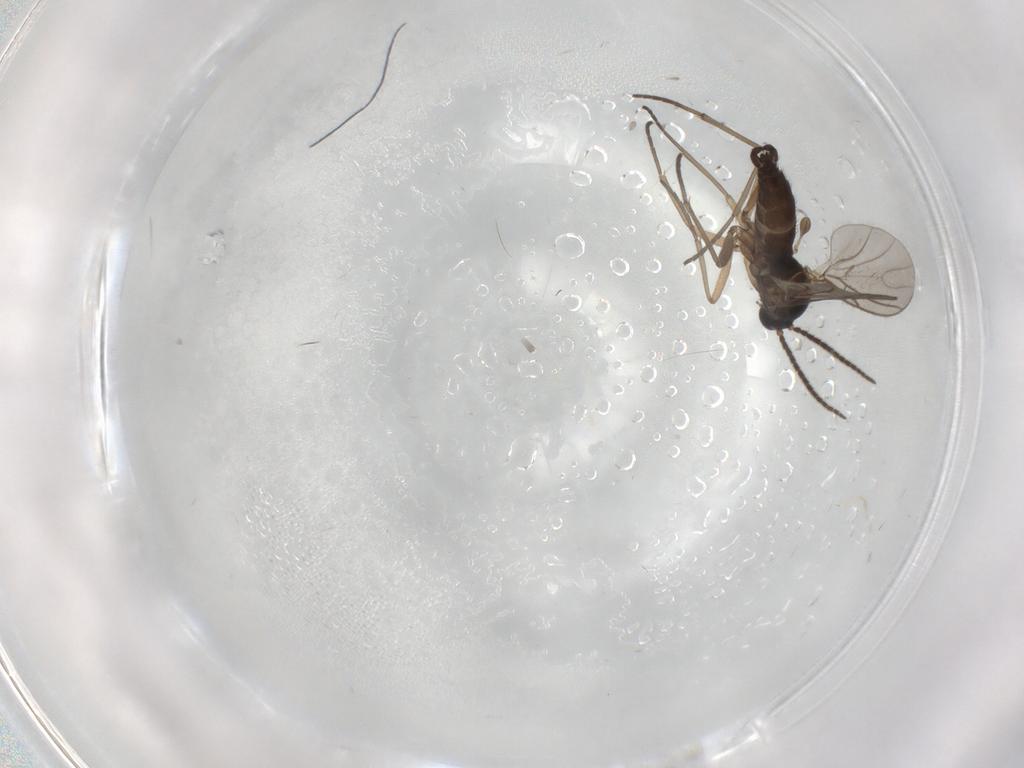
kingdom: Animalia
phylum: Arthropoda
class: Insecta
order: Diptera
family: Sciaridae
